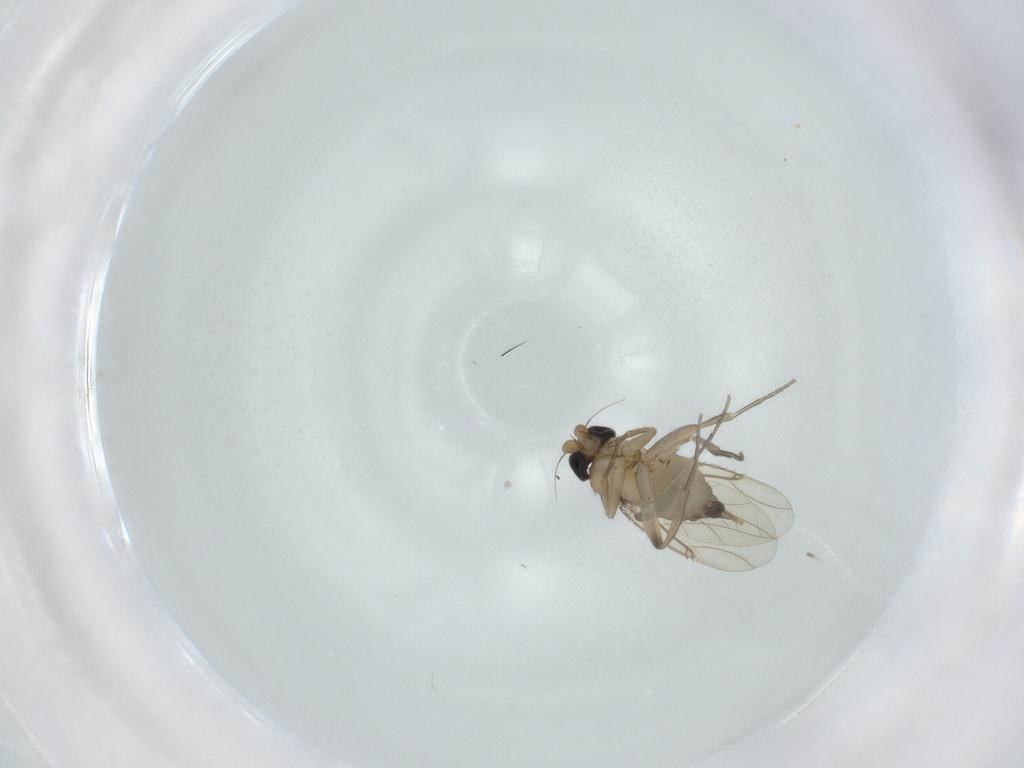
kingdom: Animalia
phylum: Arthropoda
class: Insecta
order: Diptera
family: Phoridae
